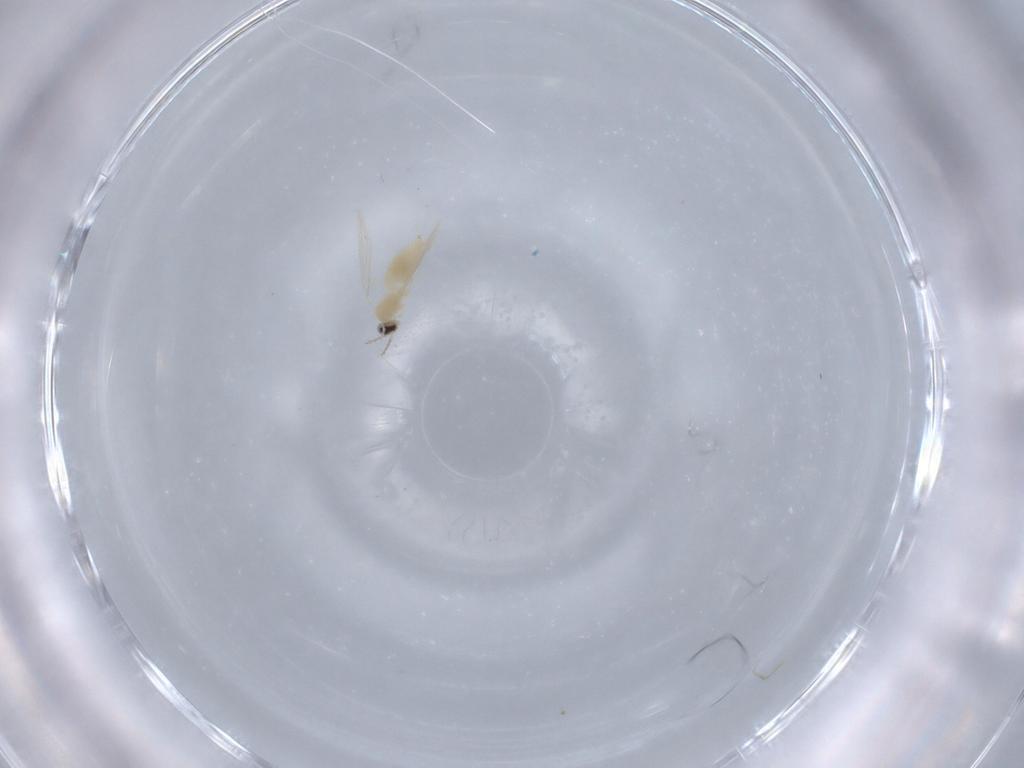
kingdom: Animalia
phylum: Arthropoda
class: Insecta
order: Diptera
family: Cecidomyiidae
